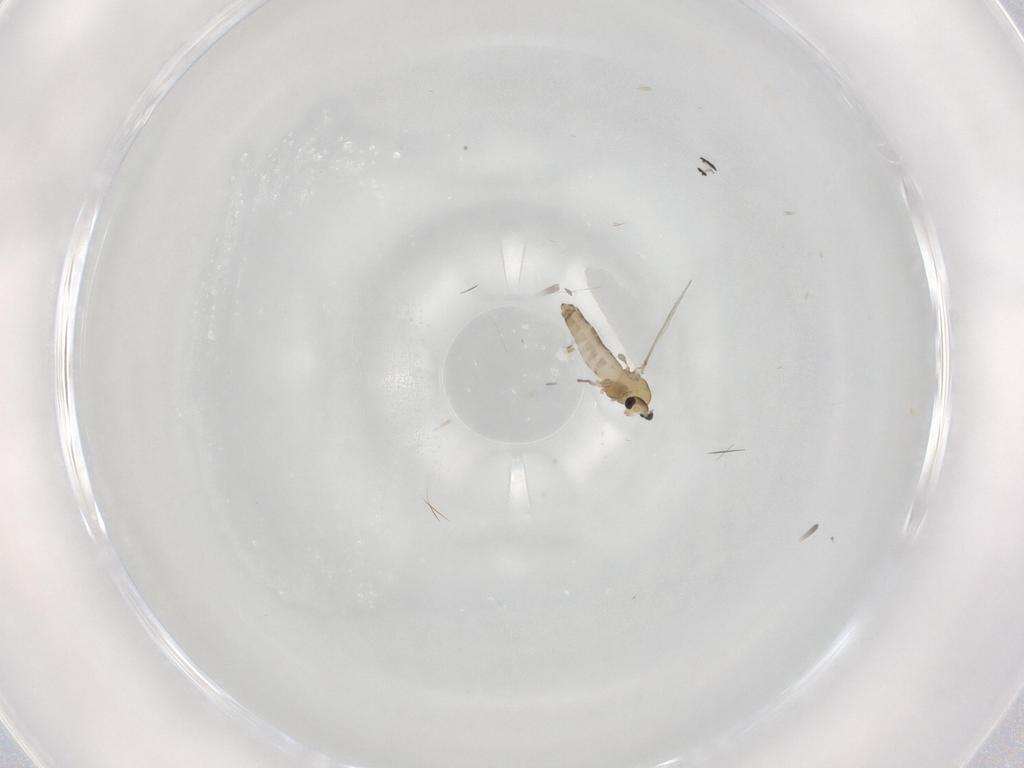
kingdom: Animalia
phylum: Arthropoda
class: Insecta
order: Diptera
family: Chironomidae
